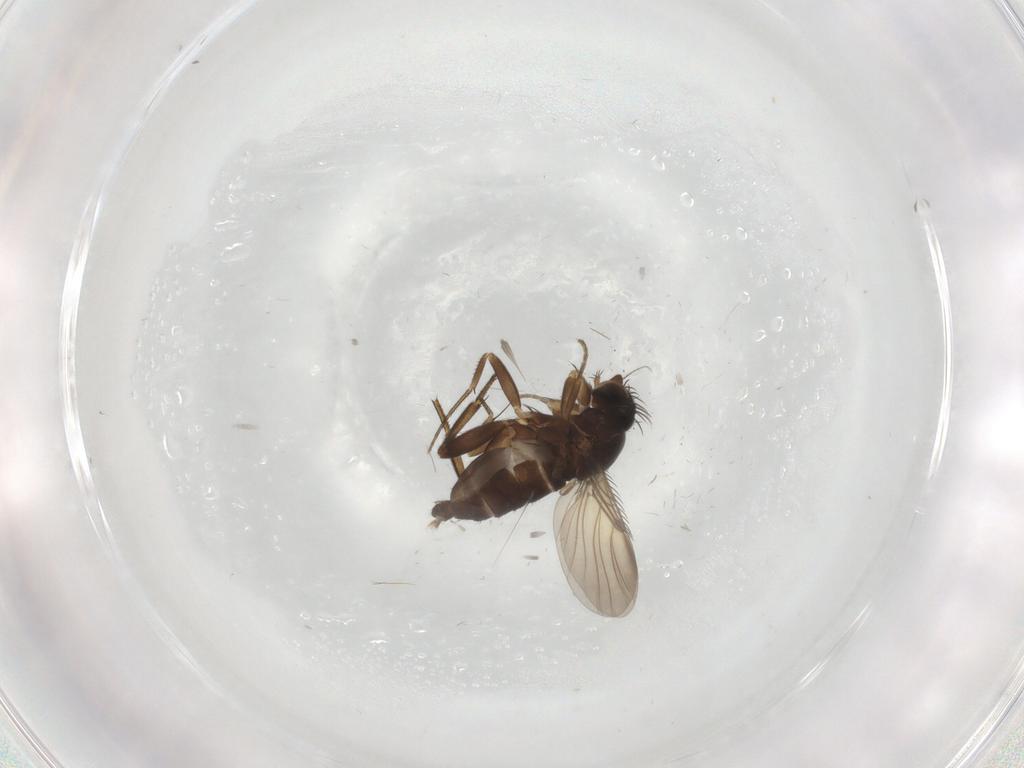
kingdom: Animalia
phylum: Arthropoda
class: Insecta
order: Diptera
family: Phoridae
